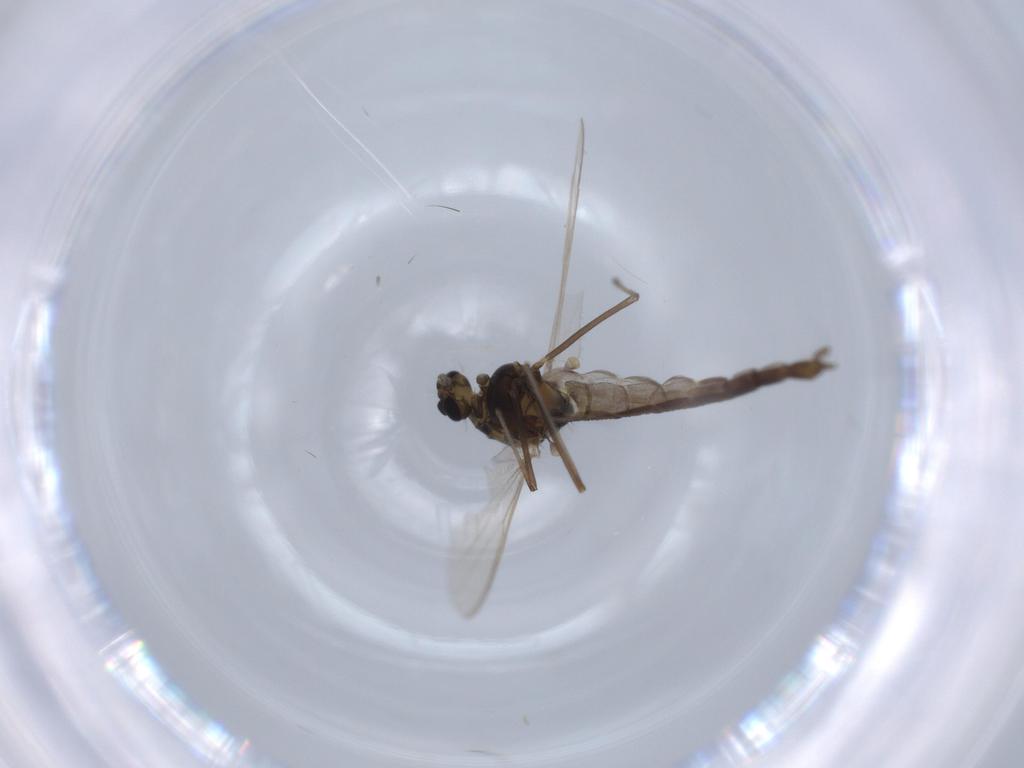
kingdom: Animalia
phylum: Arthropoda
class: Insecta
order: Diptera
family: Chironomidae
